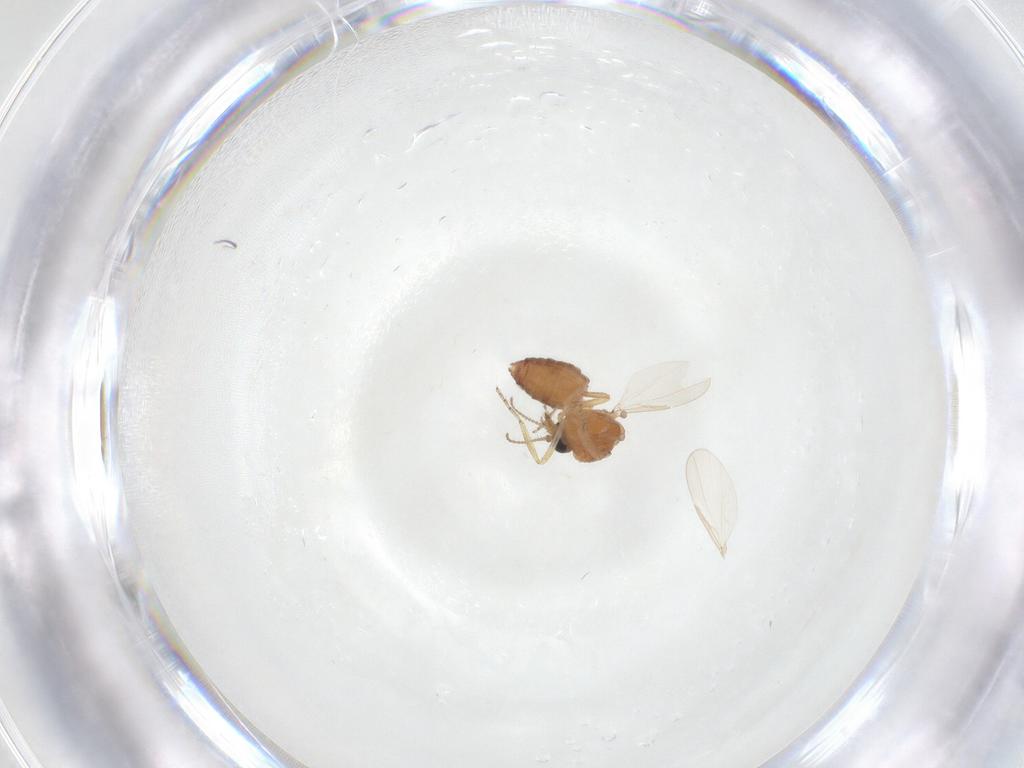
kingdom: Animalia
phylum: Arthropoda
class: Insecta
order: Diptera
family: Ceratopogonidae
